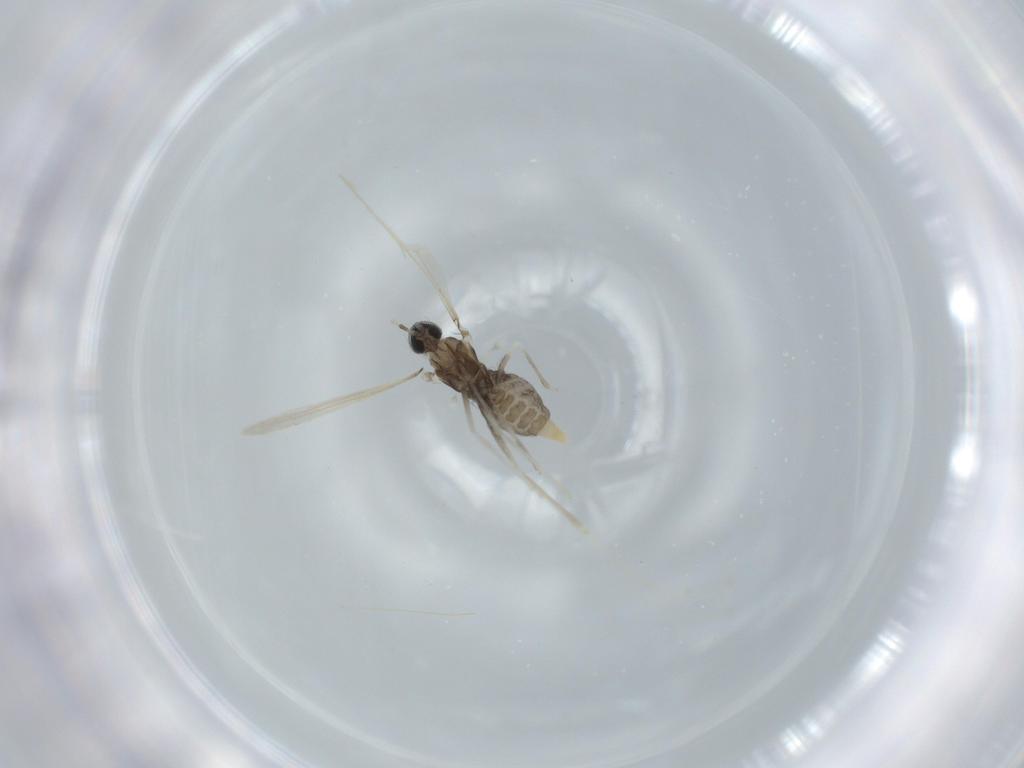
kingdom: Animalia
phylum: Arthropoda
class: Insecta
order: Diptera
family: Cecidomyiidae
